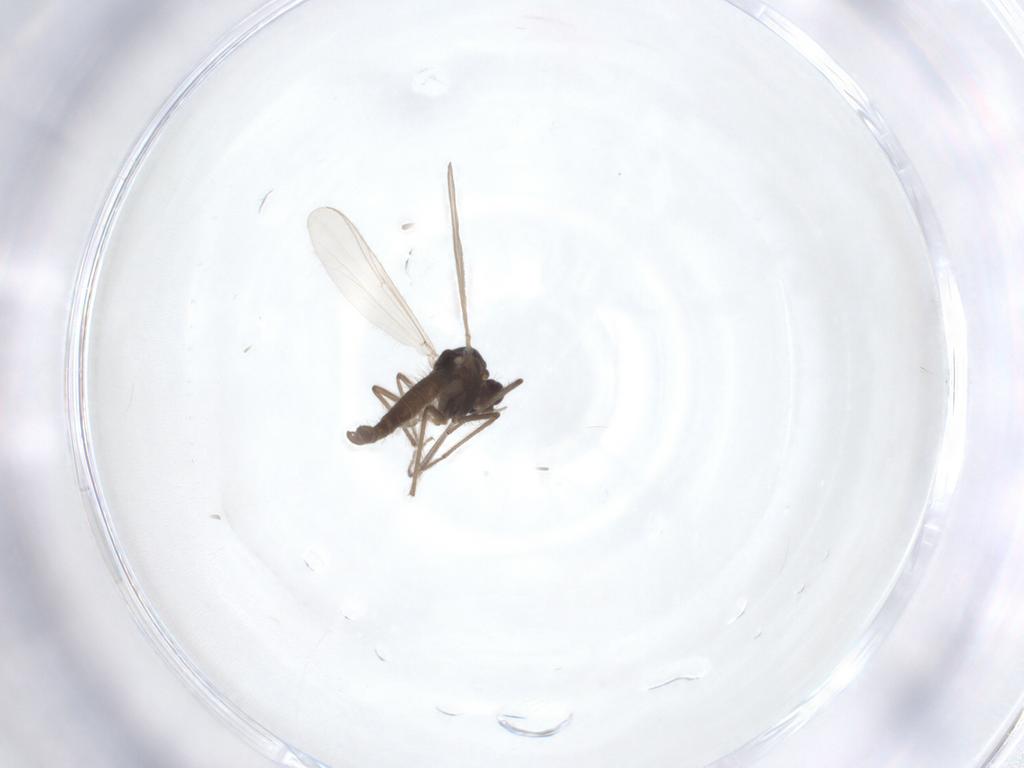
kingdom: Animalia
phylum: Arthropoda
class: Insecta
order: Diptera
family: Chironomidae
